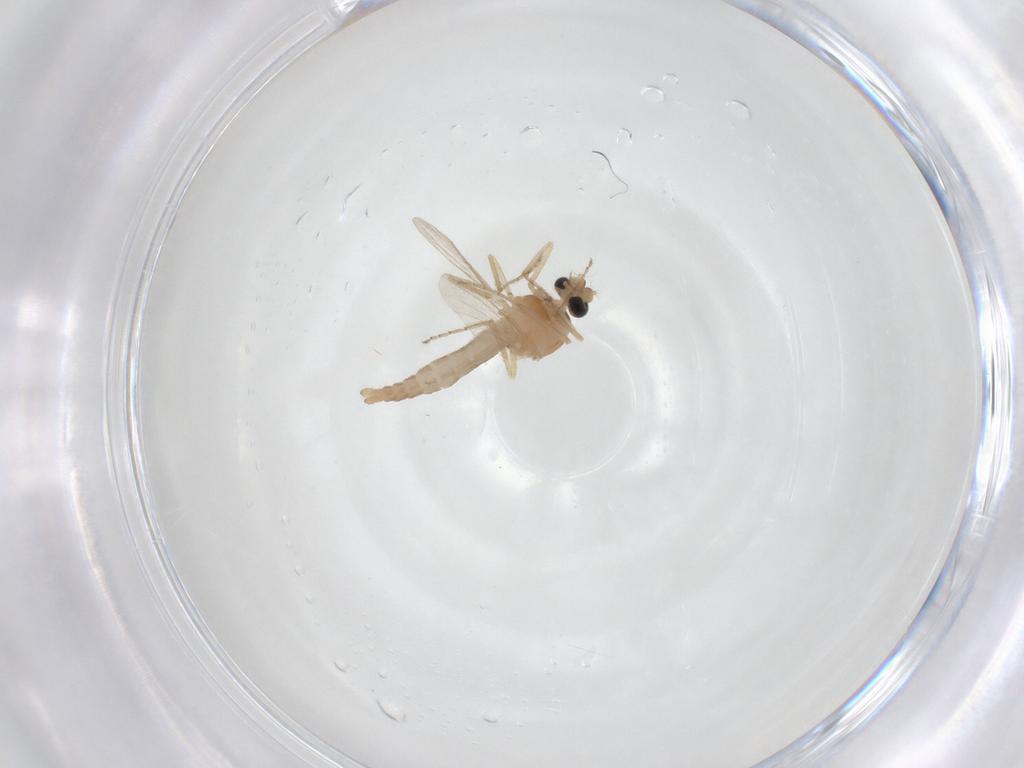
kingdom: Animalia
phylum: Arthropoda
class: Insecta
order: Diptera
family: Ceratopogonidae
